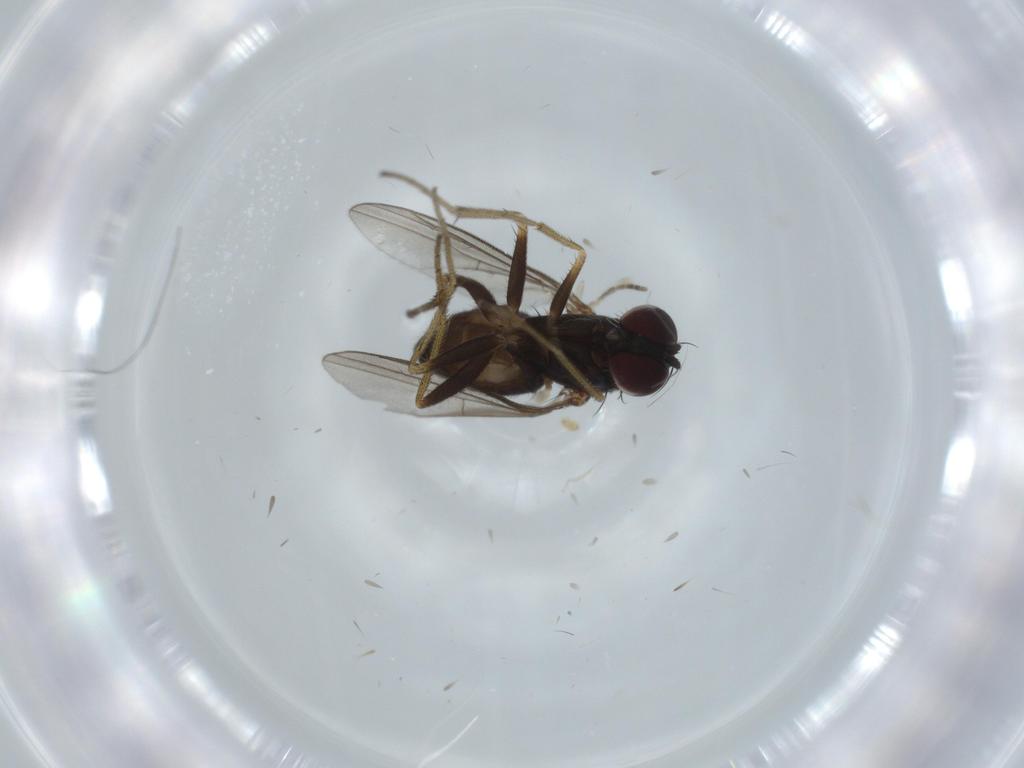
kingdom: Animalia
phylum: Arthropoda
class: Insecta
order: Diptera
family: Dolichopodidae
